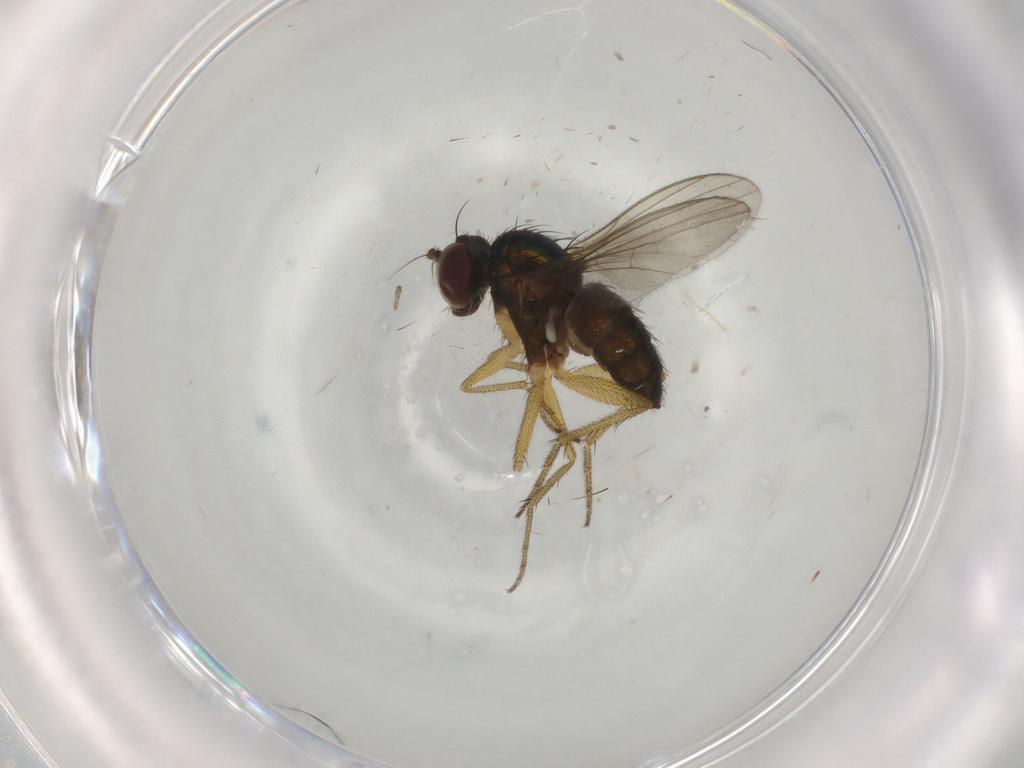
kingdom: Animalia
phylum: Arthropoda
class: Insecta
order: Diptera
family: Dolichopodidae
